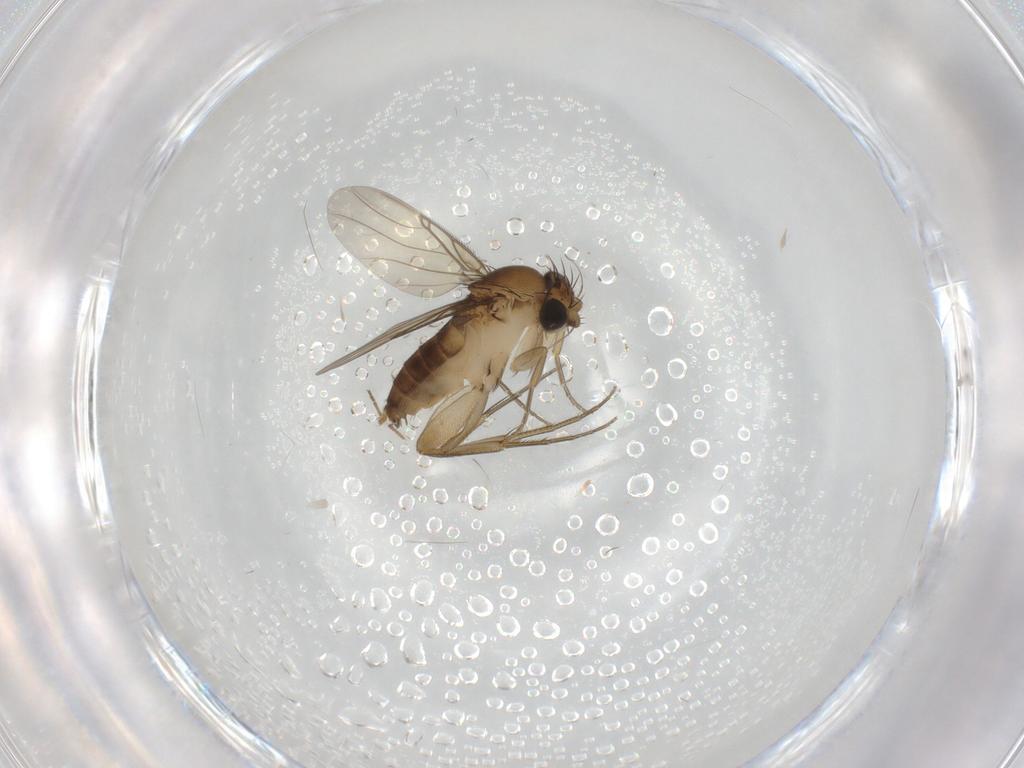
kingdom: Animalia
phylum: Arthropoda
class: Insecta
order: Diptera
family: Phoridae
